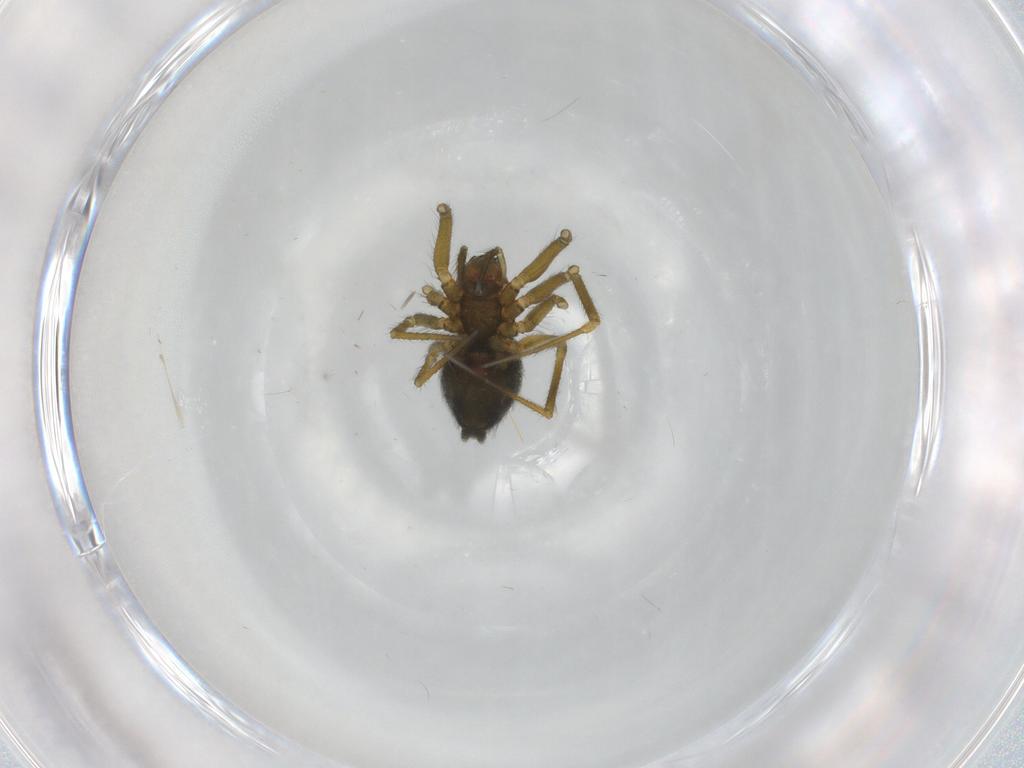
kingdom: Animalia
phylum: Arthropoda
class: Arachnida
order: Araneae
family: Linyphiidae
